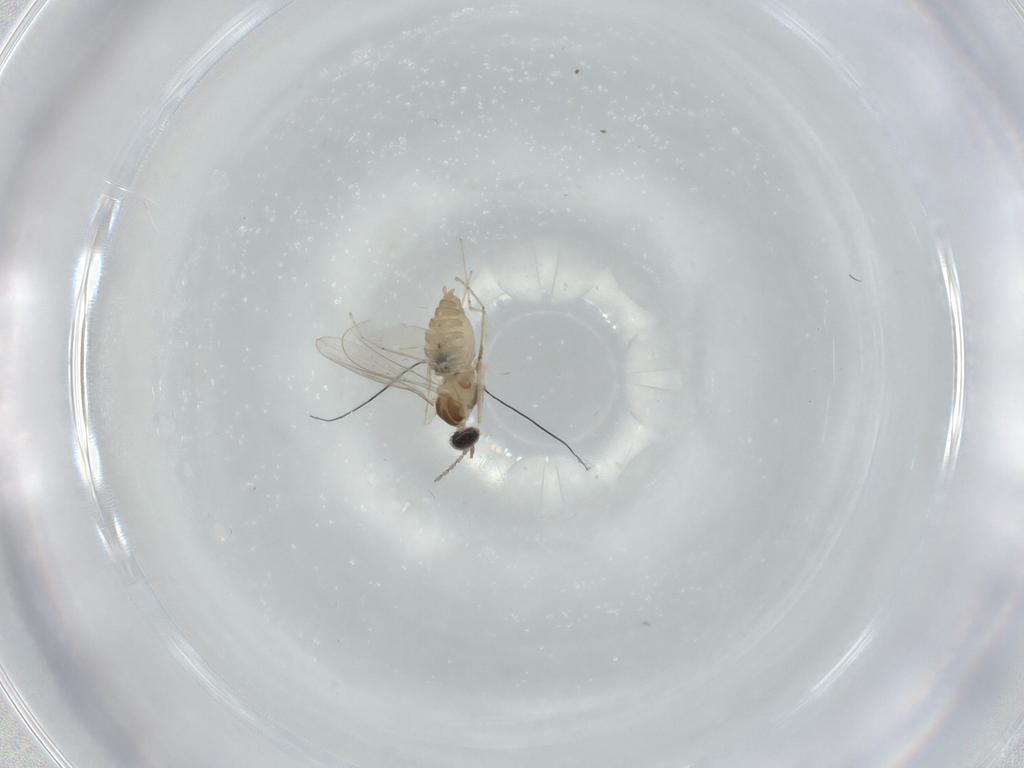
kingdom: Animalia
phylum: Arthropoda
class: Insecta
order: Diptera
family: Cecidomyiidae
